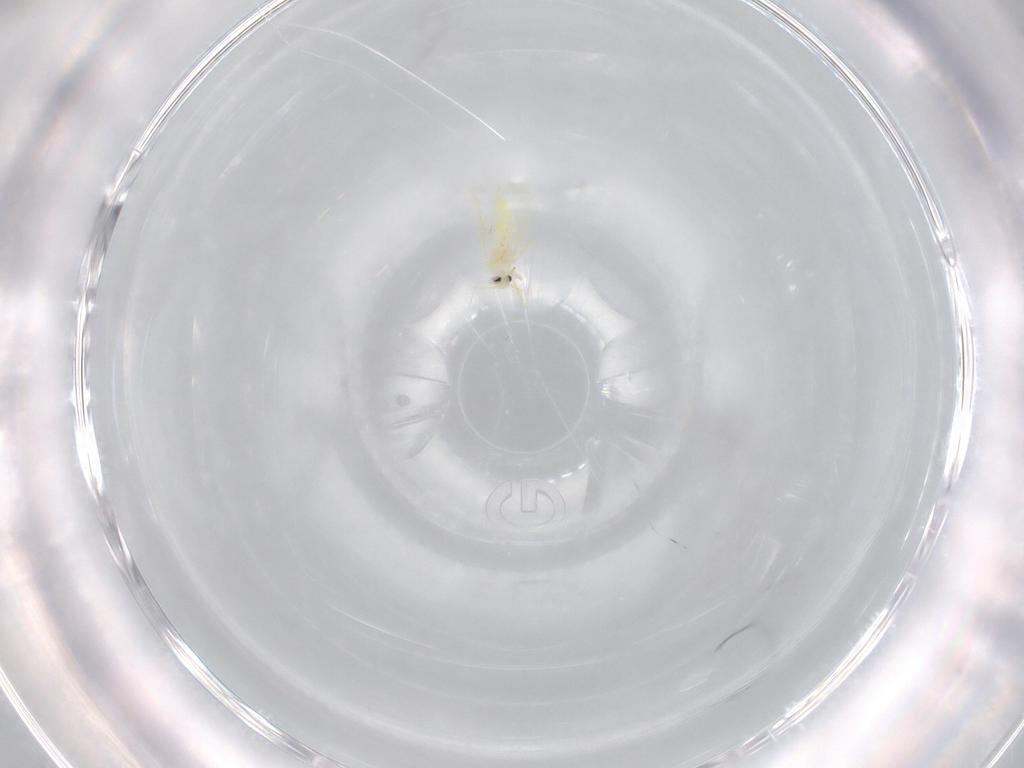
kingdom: Animalia
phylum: Arthropoda
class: Insecta
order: Hemiptera
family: Aleyrodidae
